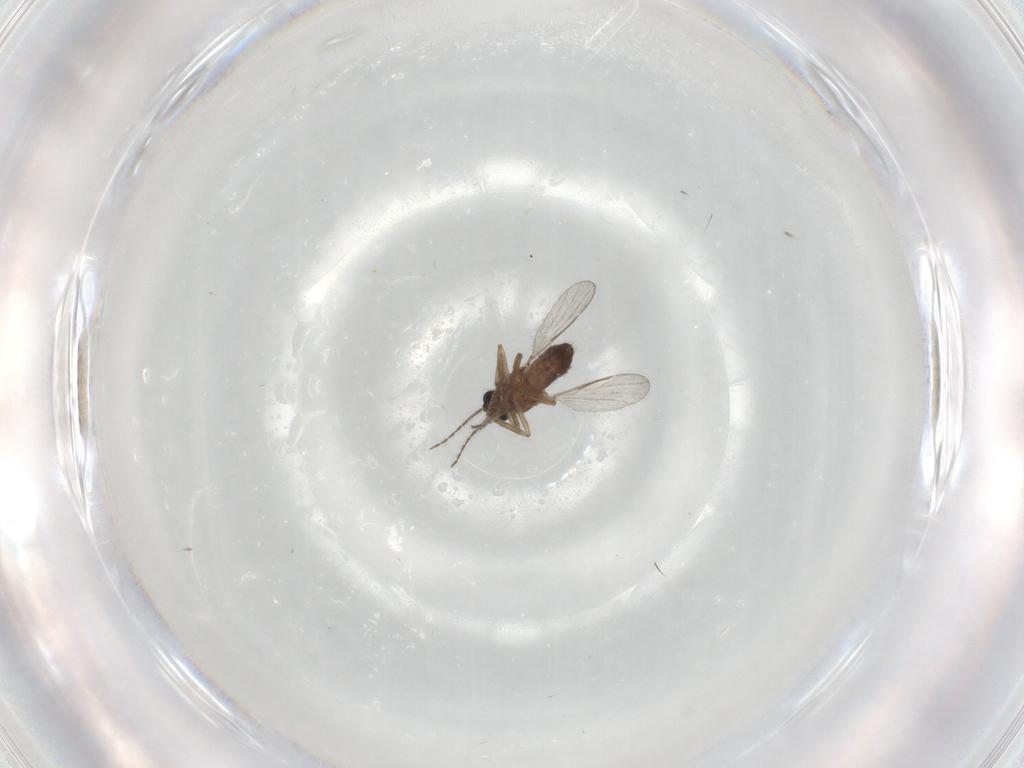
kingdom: Animalia
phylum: Arthropoda
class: Insecta
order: Diptera
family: Ceratopogonidae
